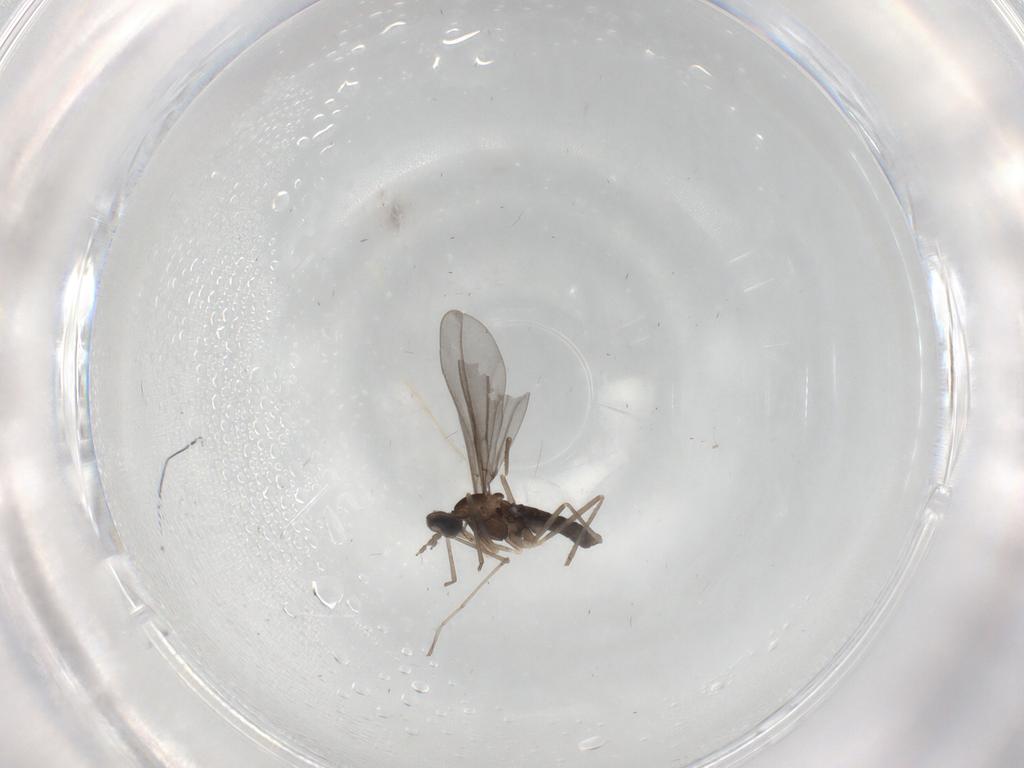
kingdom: Animalia
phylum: Arthropoda
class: Insecta
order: Diptera
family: Cecidomyiidae
